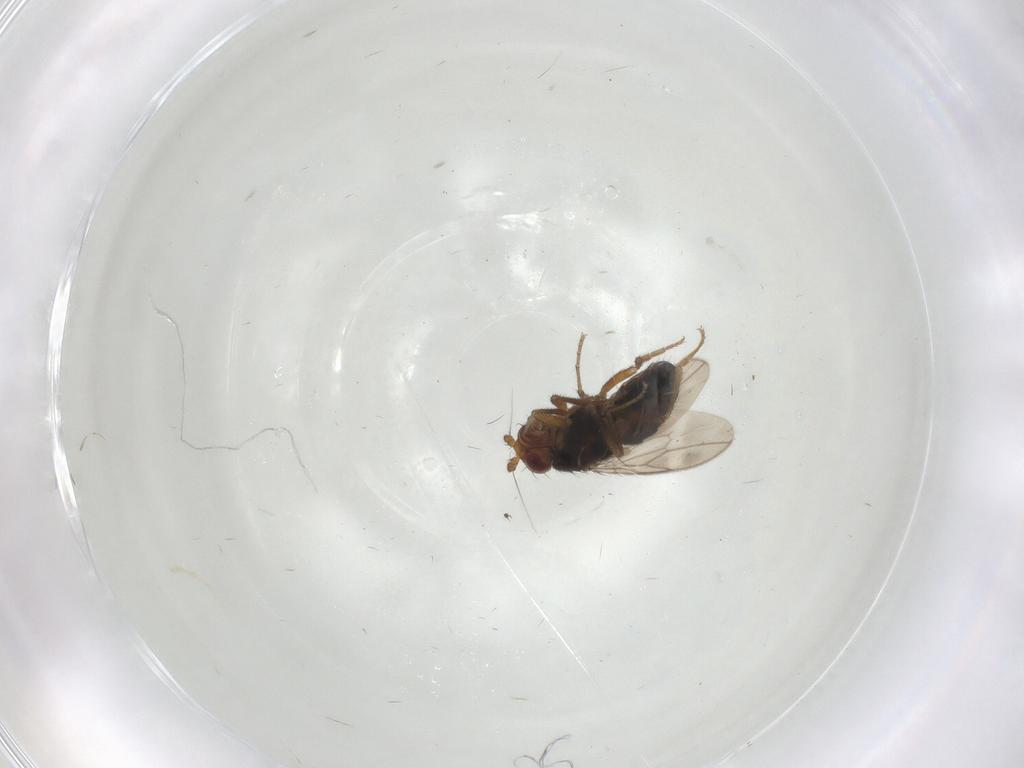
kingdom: Animalia
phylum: Arthropoda
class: Insecta
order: Diptera
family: Sphaeroceridae
